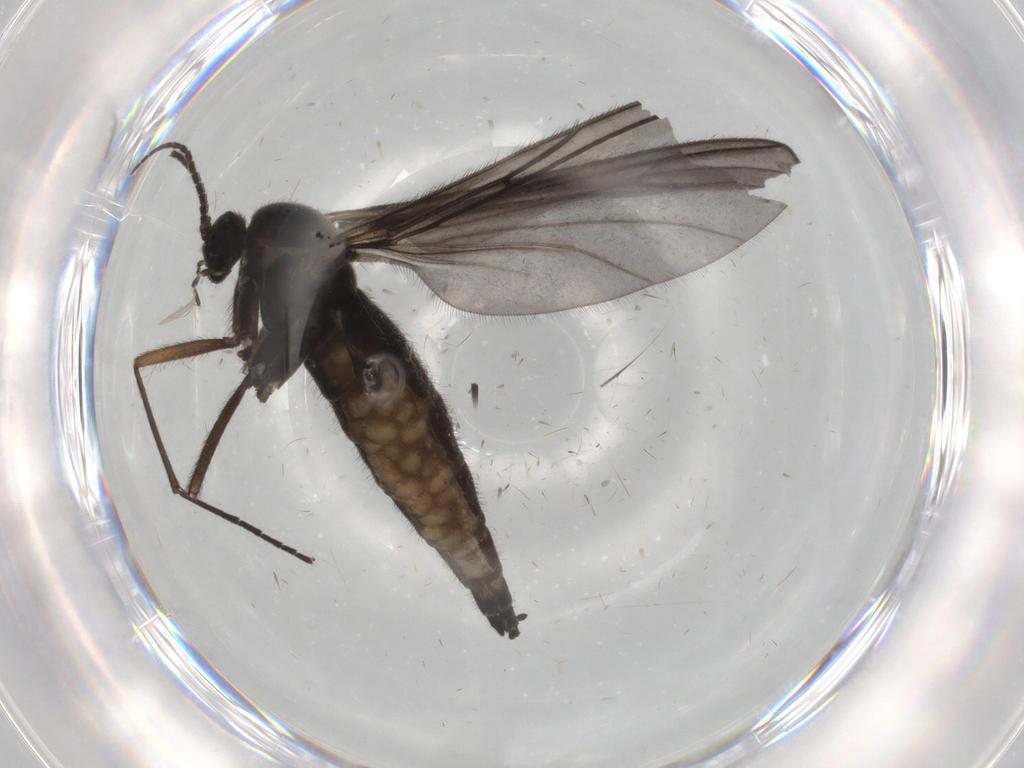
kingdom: Animalia
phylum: Arthropoda
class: Insecta
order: Diptera
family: Sciaridae
